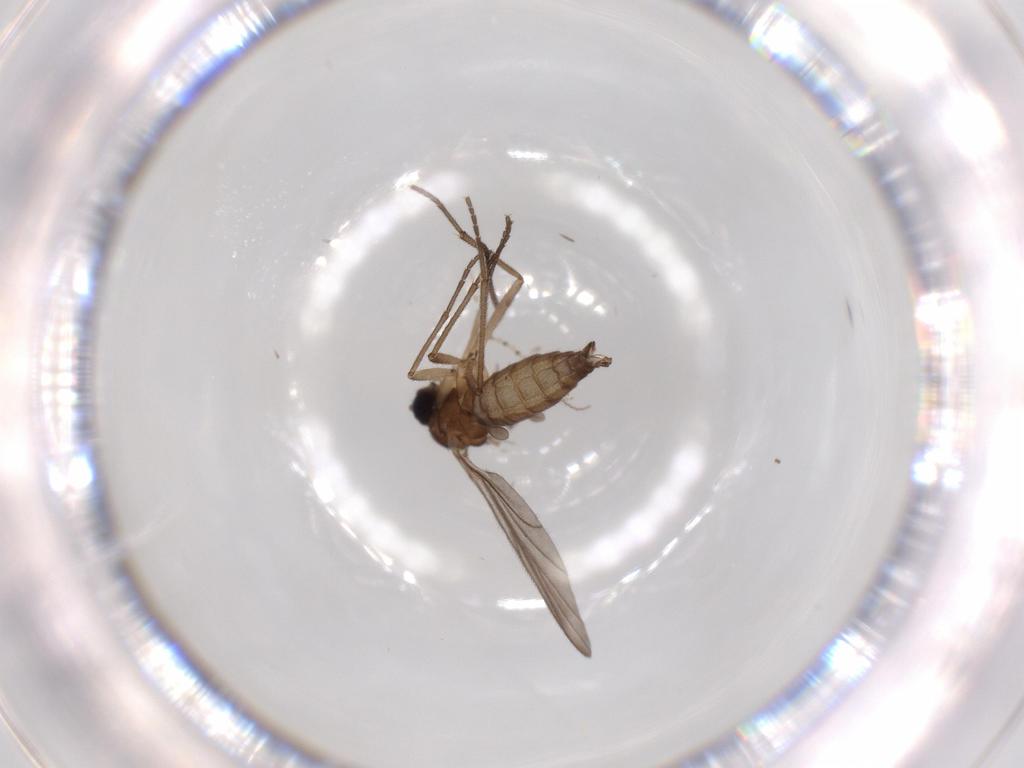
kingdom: Animalia
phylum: Arthropoda
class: Insecta
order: Diptera
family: Sciaridae
